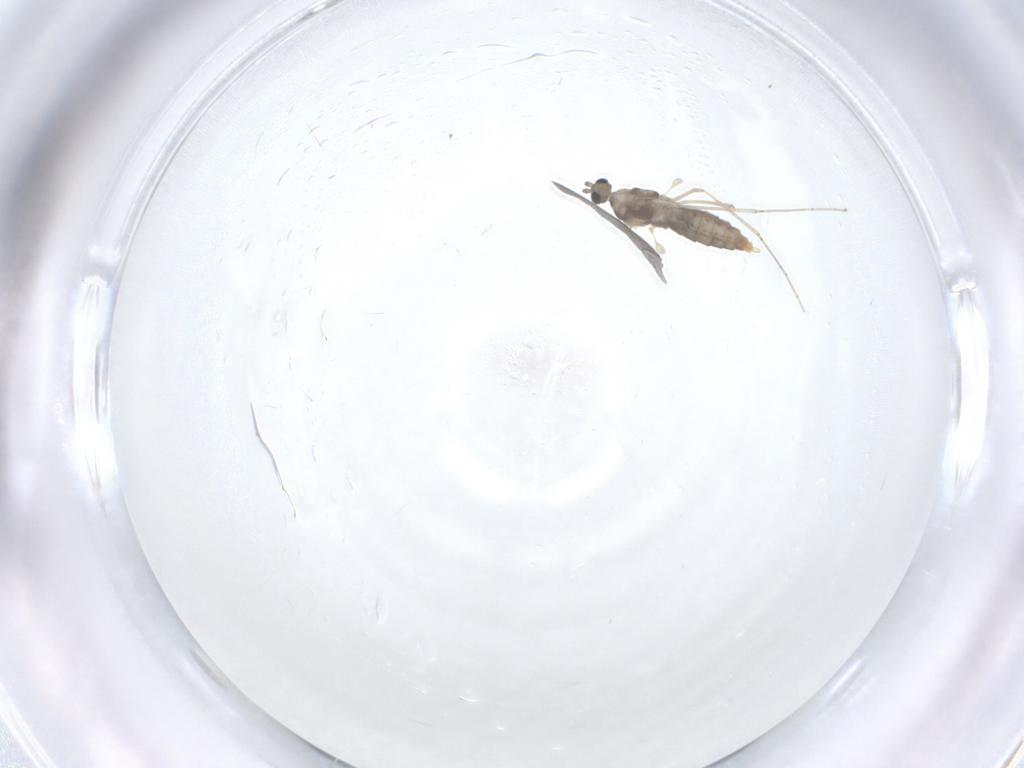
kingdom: Animalia
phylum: Arthropoda
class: Insecta
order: Diptera
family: Cecidomyiidae
